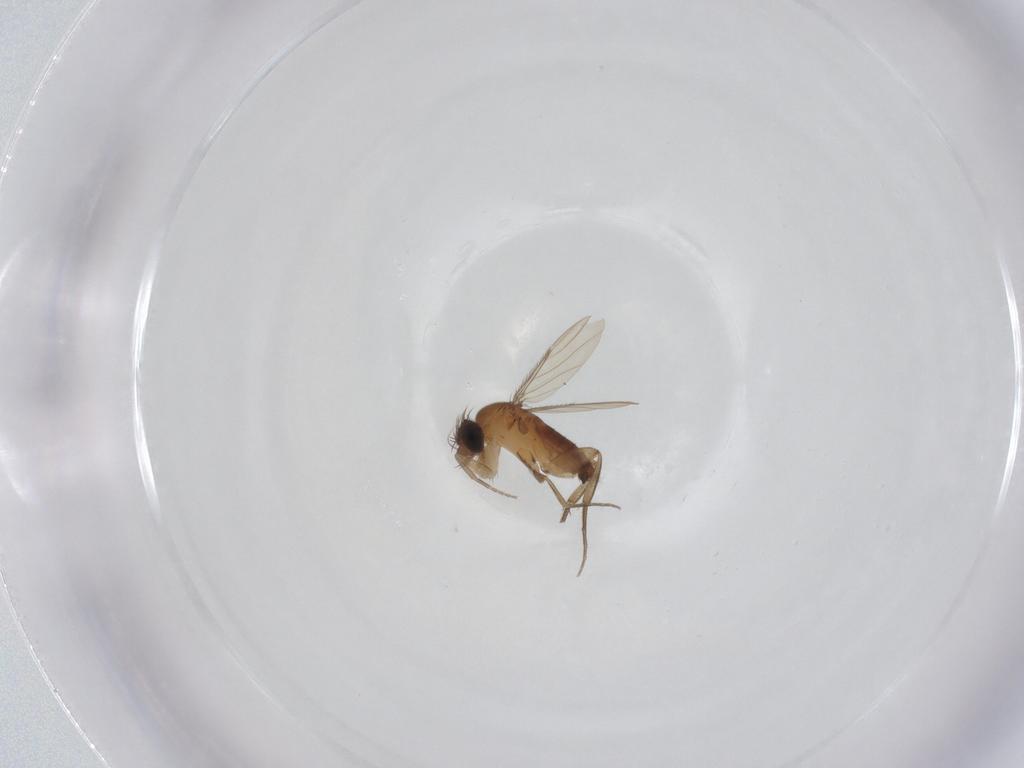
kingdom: Animalia
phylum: Arthropoda
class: Insecta
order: Diptera
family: Phoridae
